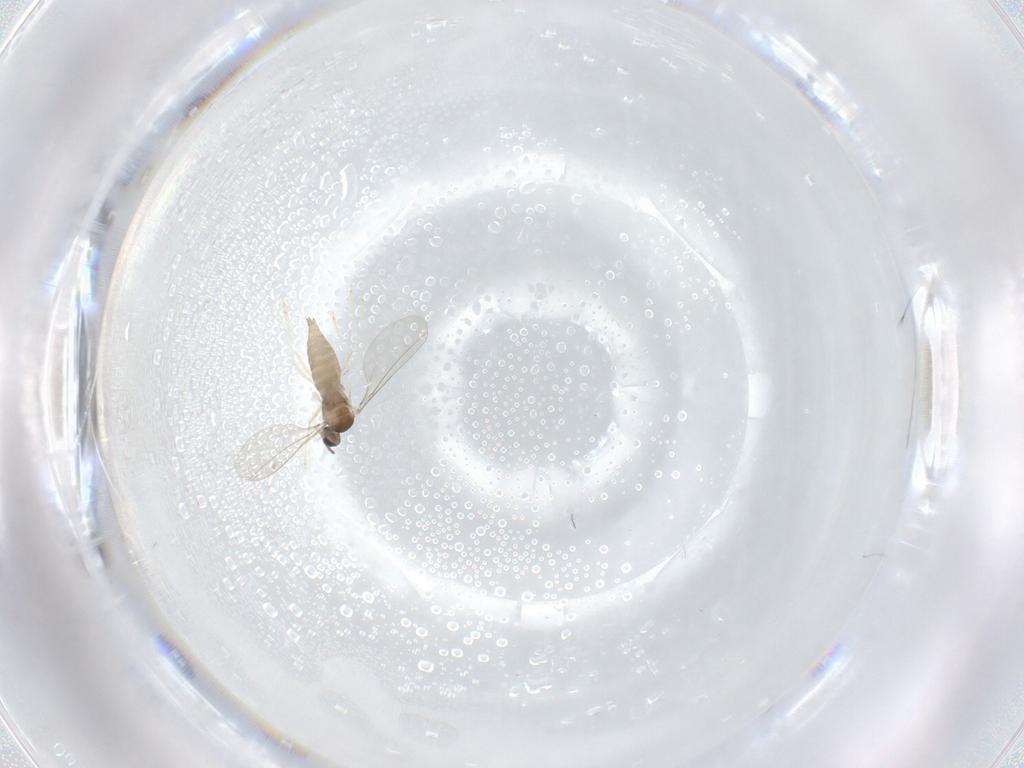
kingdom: Animalia
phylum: Arthropoda
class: Insecta
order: Diptera
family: Cecidomyiidae
